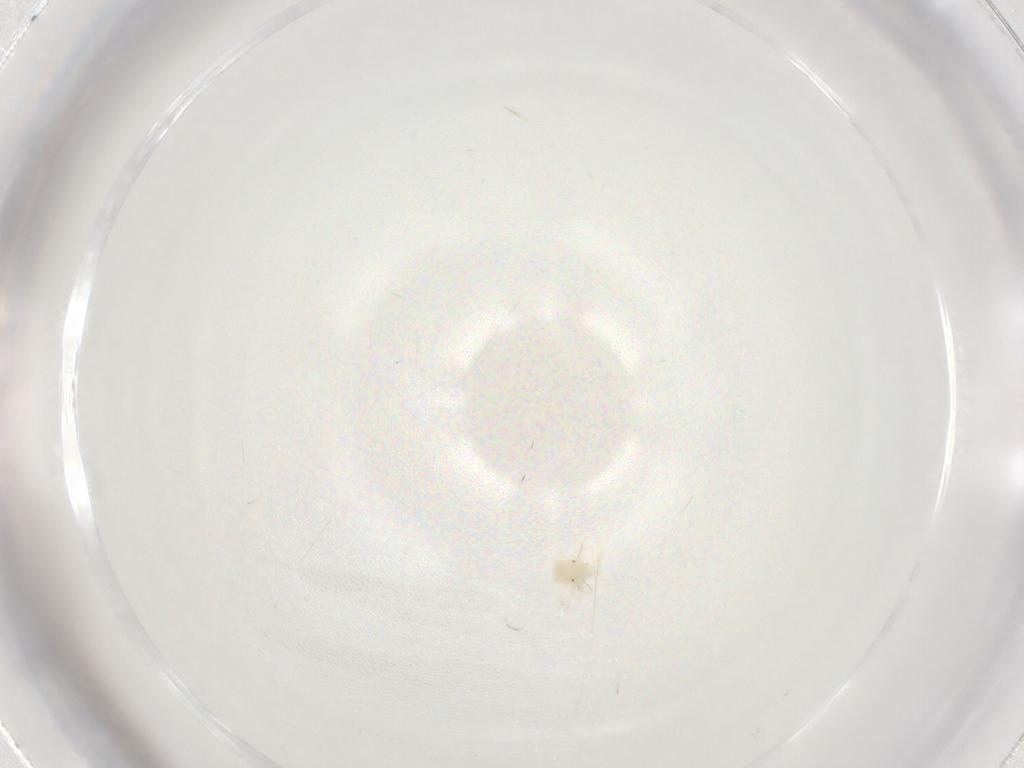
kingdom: Animalia
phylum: Arthropoda
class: Arachnida
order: Trombidiformes
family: Anystidae
